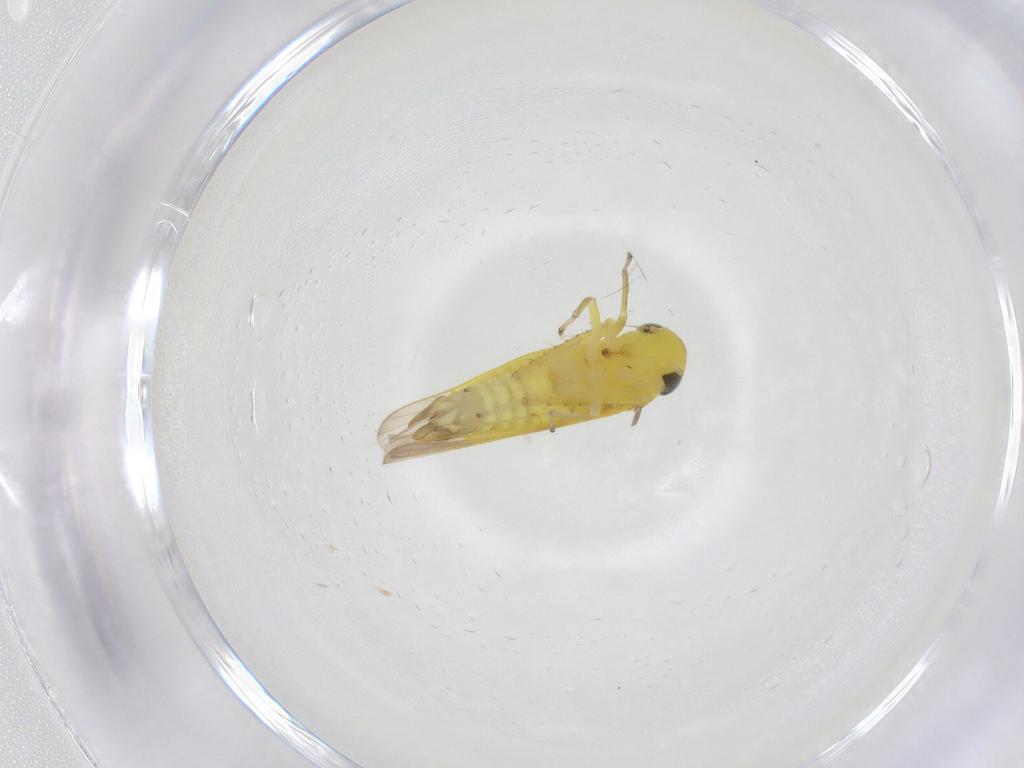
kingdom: Animalia
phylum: Arthropoda
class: Insecta
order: Hemiptera
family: Cicadellidae
